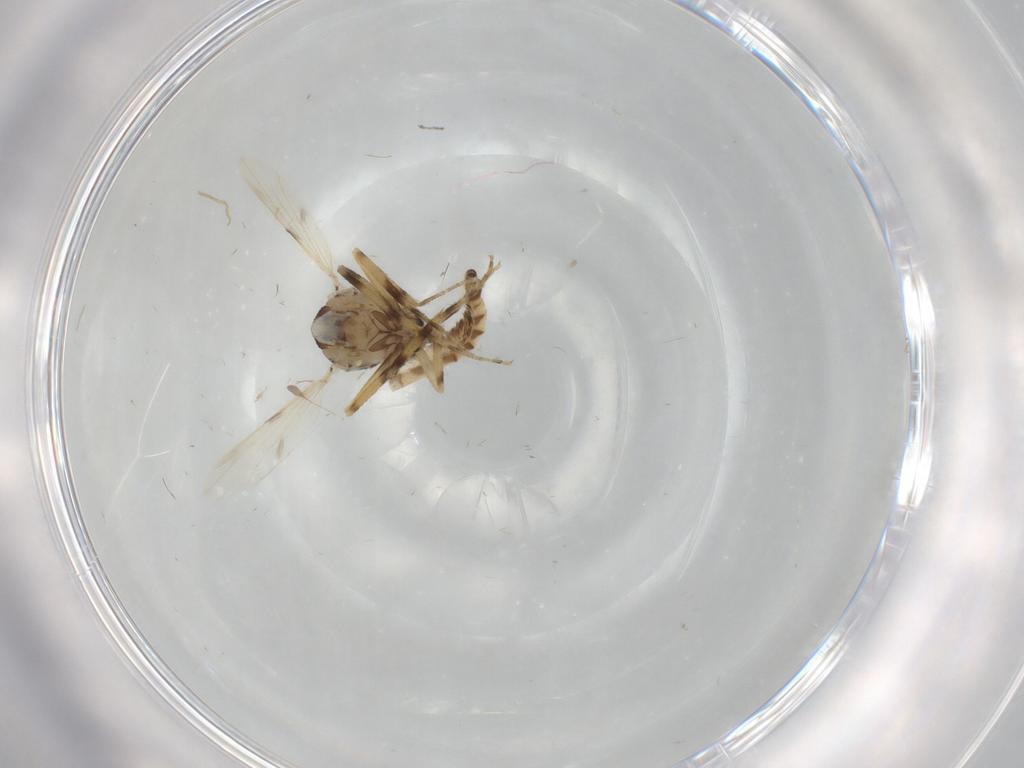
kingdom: Animalia
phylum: Arthropoda
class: Insecta
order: Diptera
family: Ceratopogonidae
